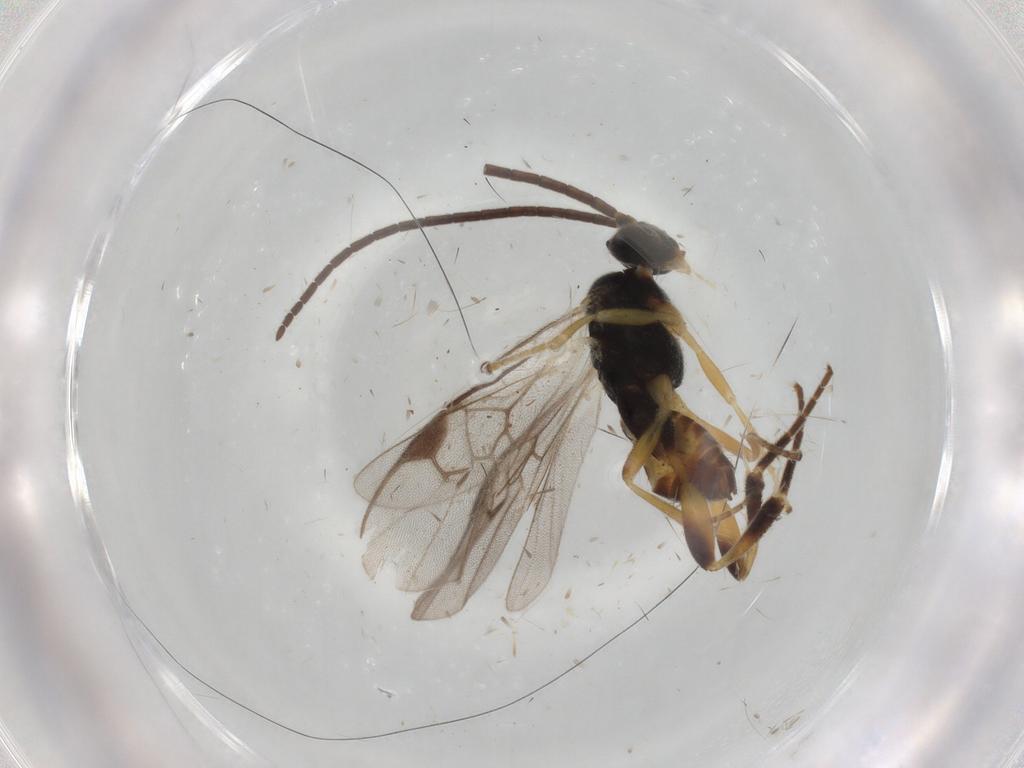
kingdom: Animalia
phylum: Arthropoda
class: Insecta
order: Hymenoptera
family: Braconidae
